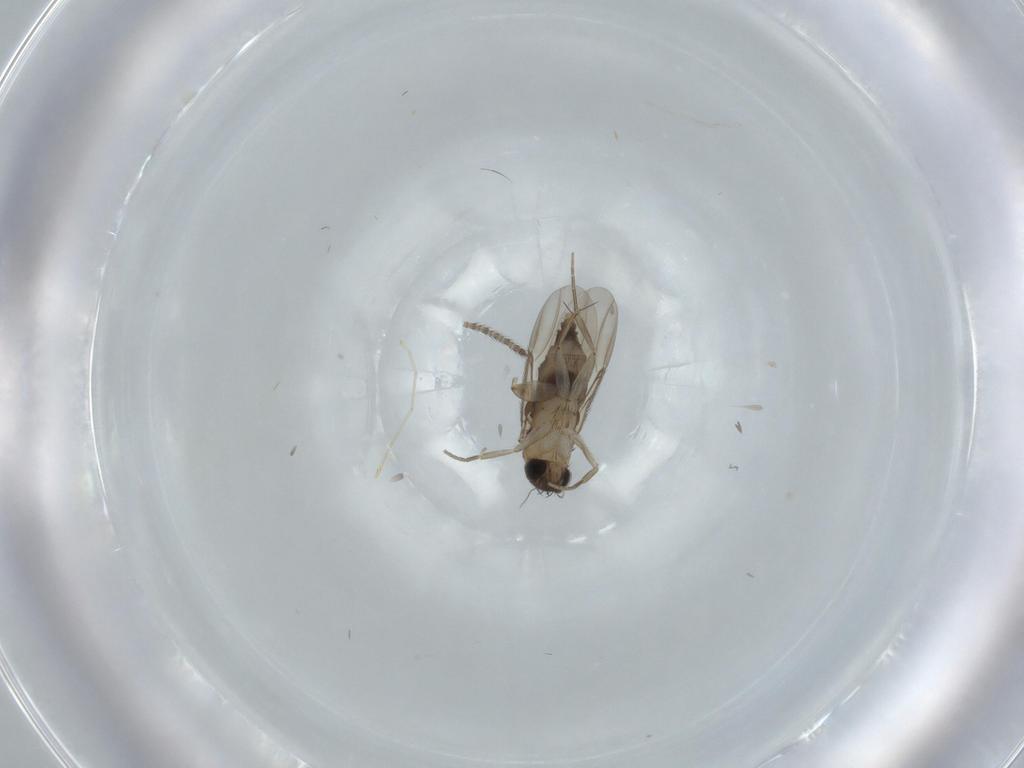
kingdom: Animalia
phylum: Arthropoda
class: Insecta
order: Diptera
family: Phoridae
